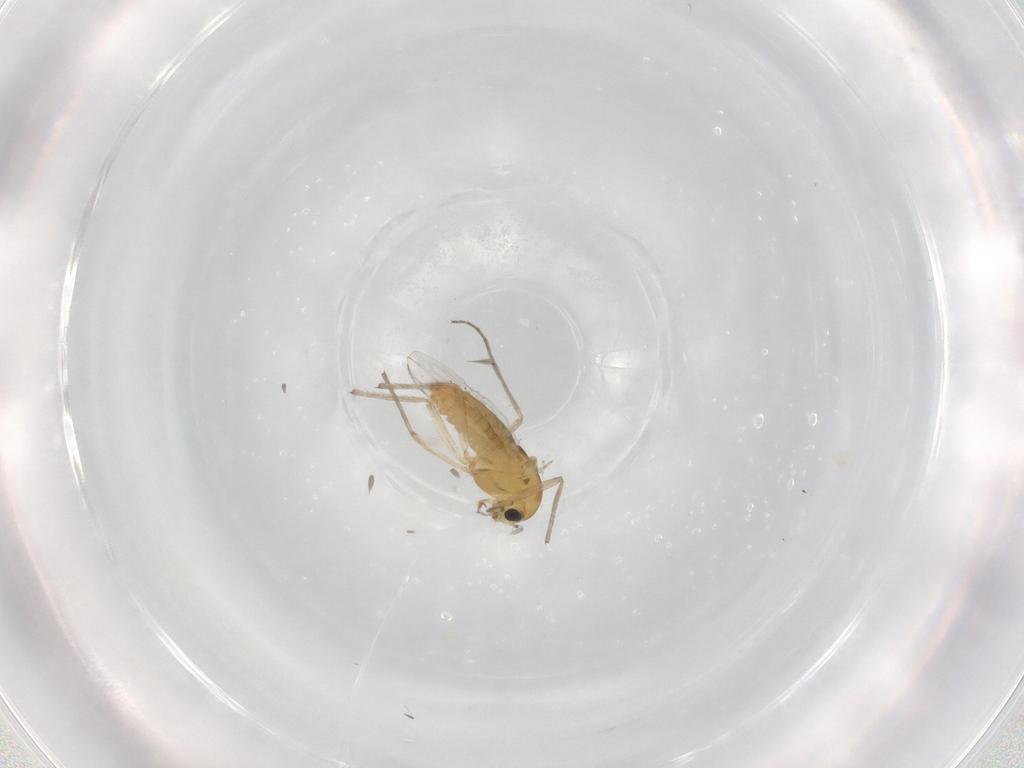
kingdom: Animalia
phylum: Arthropoda
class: Insecta
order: Diptera
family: Chironomidae
